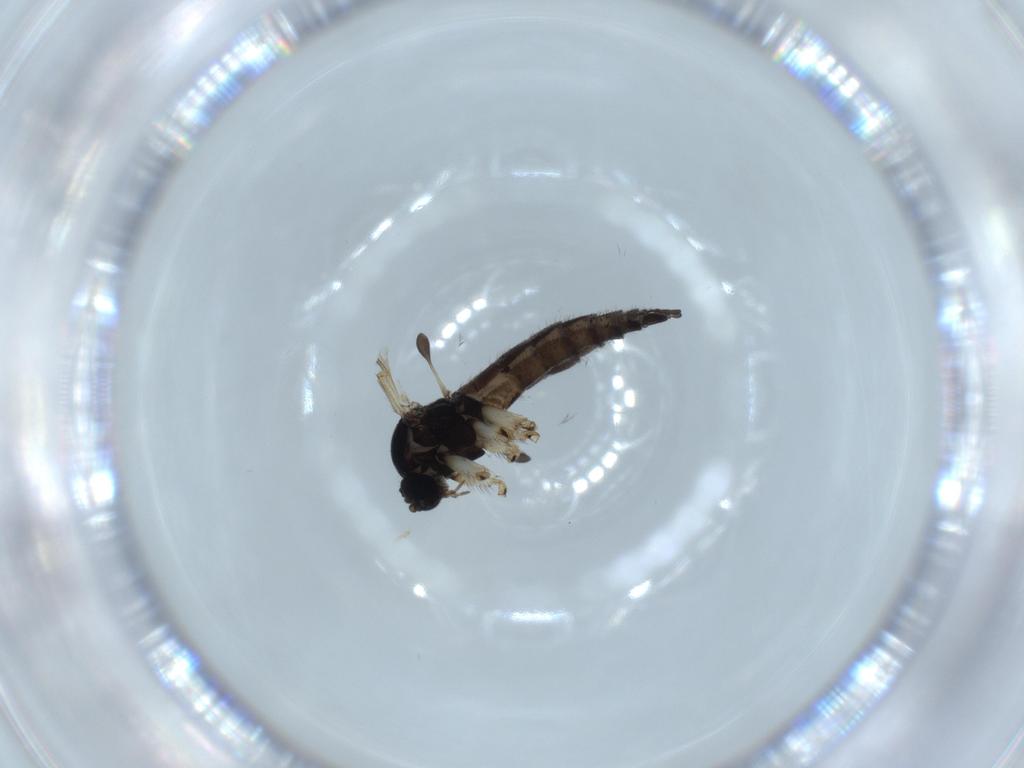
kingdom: Animalia
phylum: Arthropoda
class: Insecta
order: Diptera
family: Sciaridae
